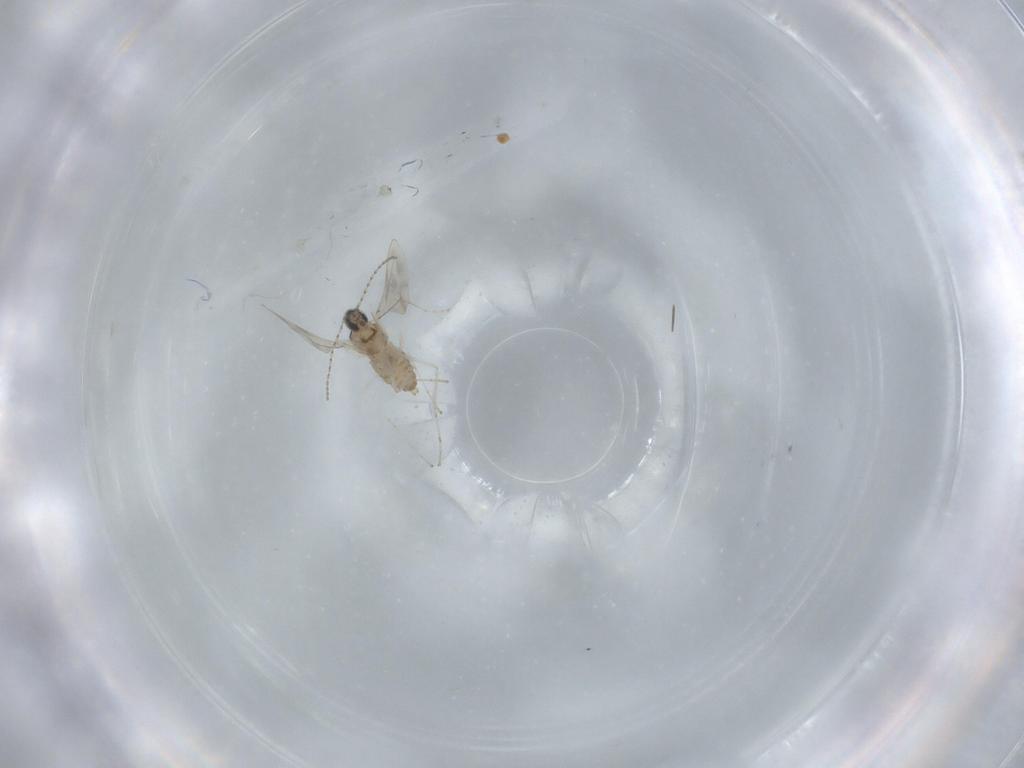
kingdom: Animalia
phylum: Arthropoda
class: Insecta
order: Diptera
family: Cecidomyiidae
